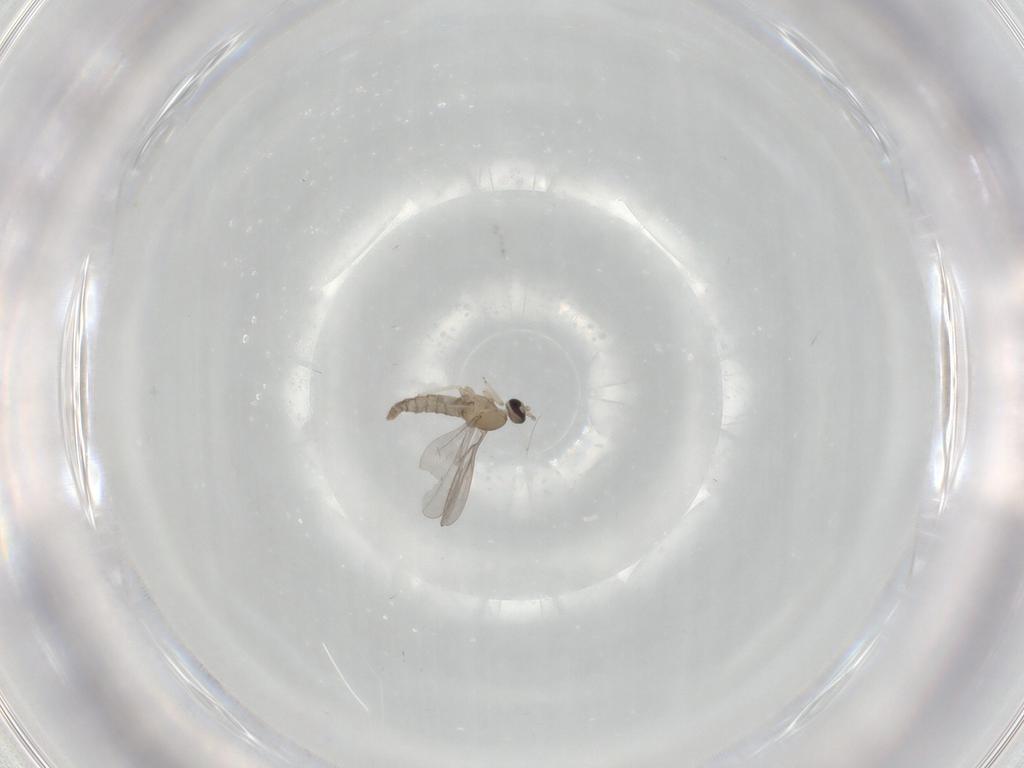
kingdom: Animalia
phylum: Arthropoda
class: Insecta
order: Diptera
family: Cecidomyiidae
